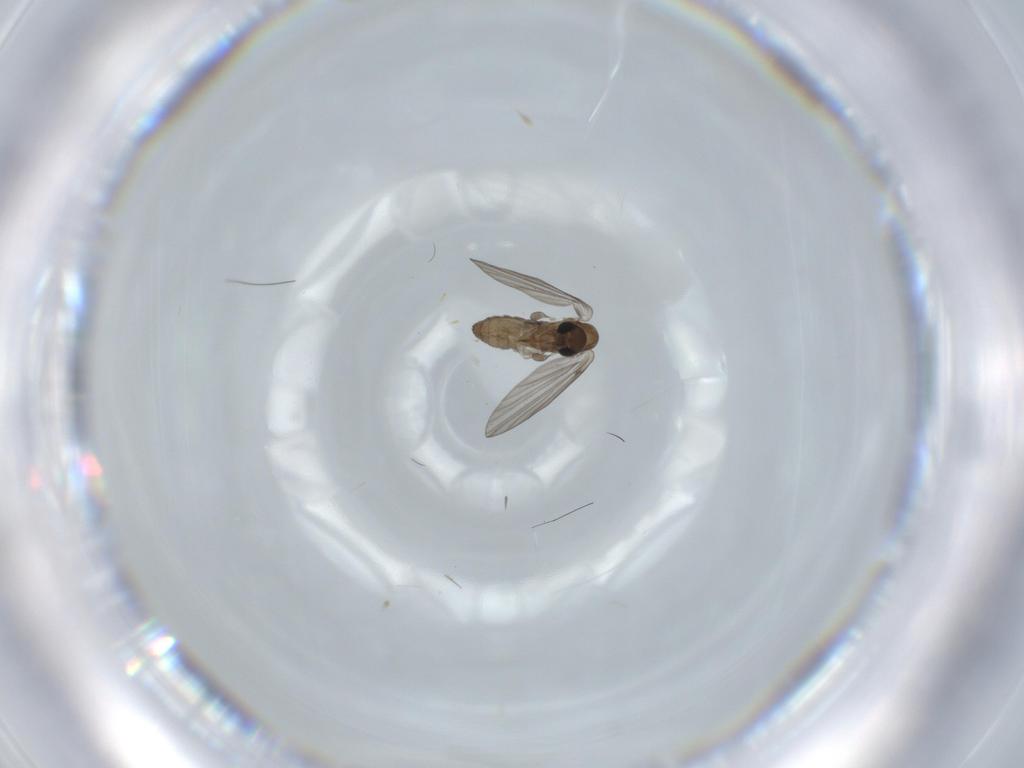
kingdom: Animalia
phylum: Arthropoda
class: Insecta
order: Diptera
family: Psychodidae
